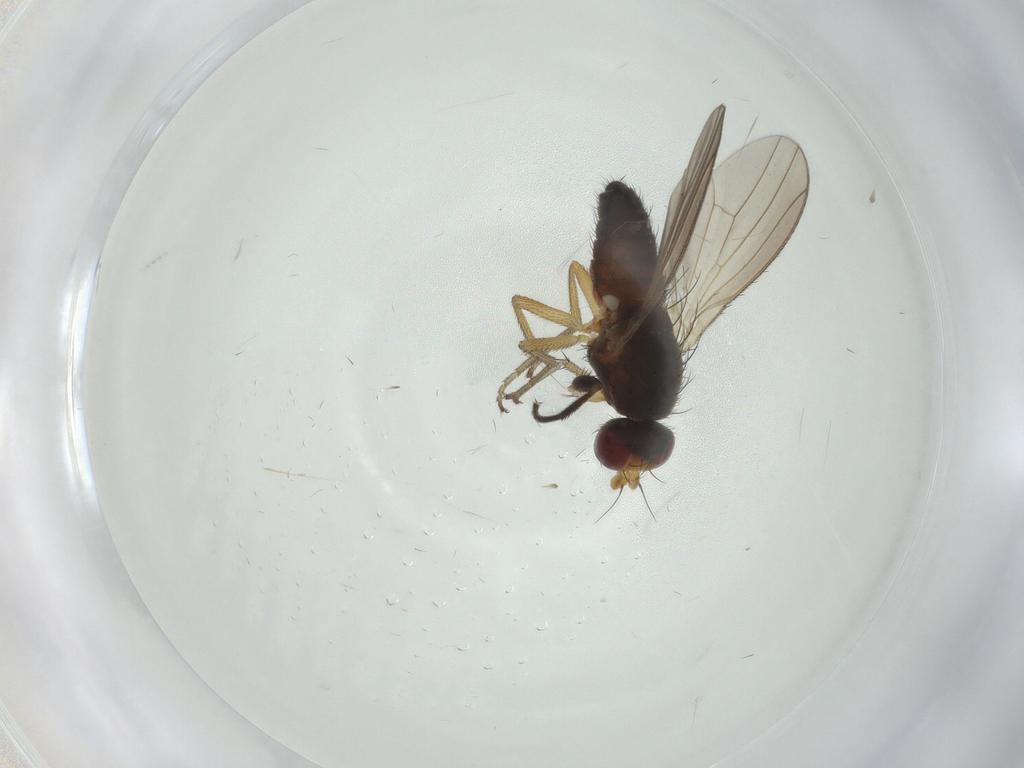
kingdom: Animalia
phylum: Arthropoda
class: Insecta
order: Diptera
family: Heleomyzidae
